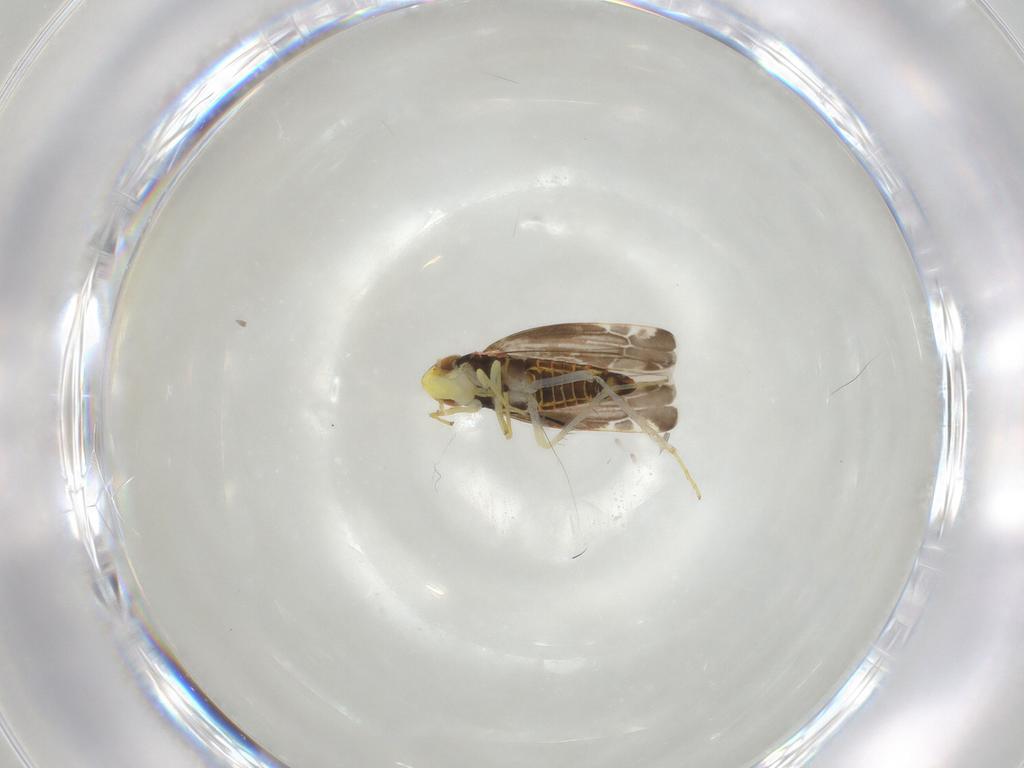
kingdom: Animalia
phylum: Arthropoda
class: Insecta
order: Hemiptera
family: Cicadellidae
